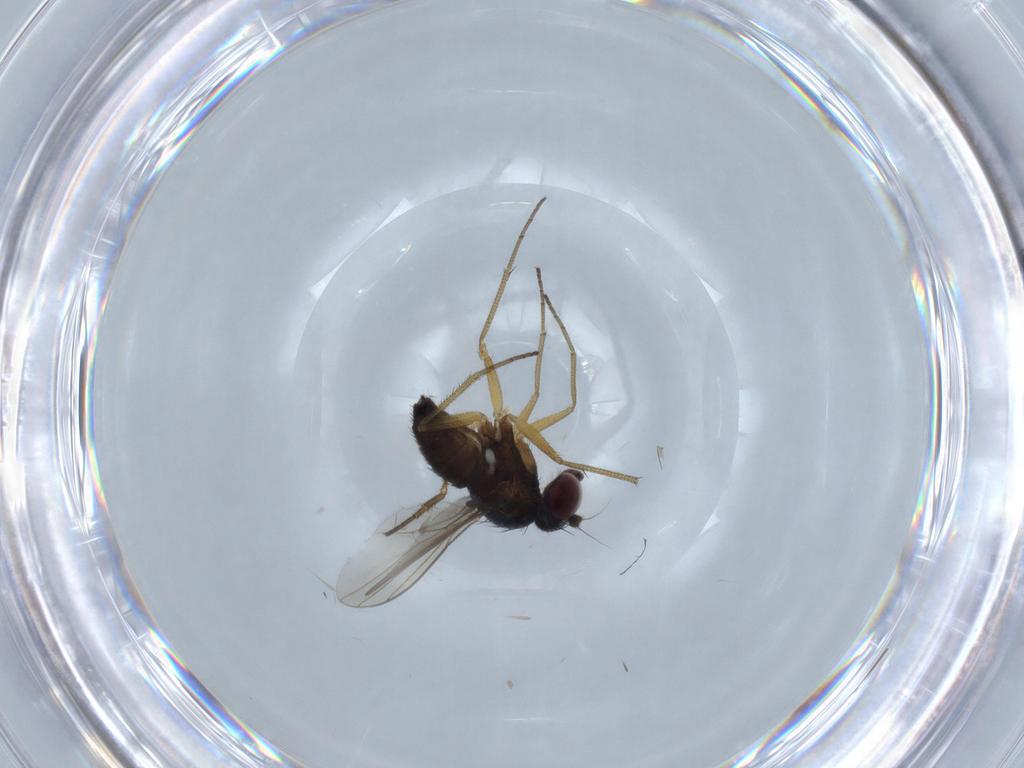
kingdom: Animalia
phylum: Arthropoda
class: Insecta
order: Diptera
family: Dolichopodidae
